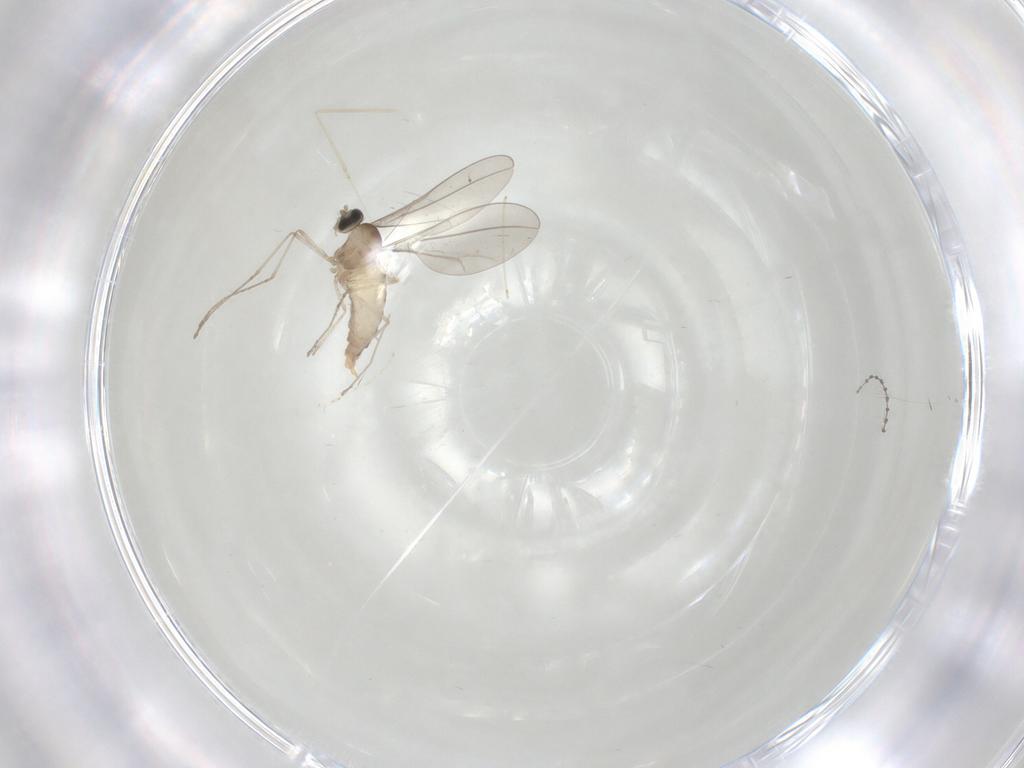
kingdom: Animalia
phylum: Arthropoda
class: Insecta
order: Diptera
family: Cecidomyiidae
